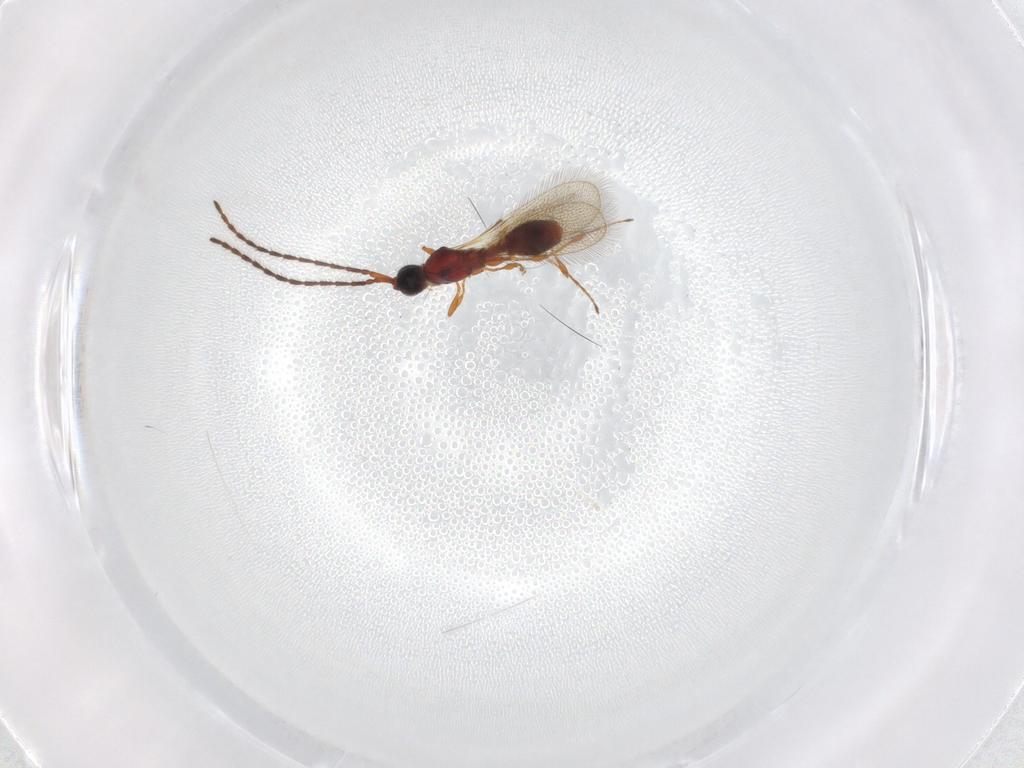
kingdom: Animalia
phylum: Arthropoda
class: Insecta
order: Hymenoptera
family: Diapriidae
